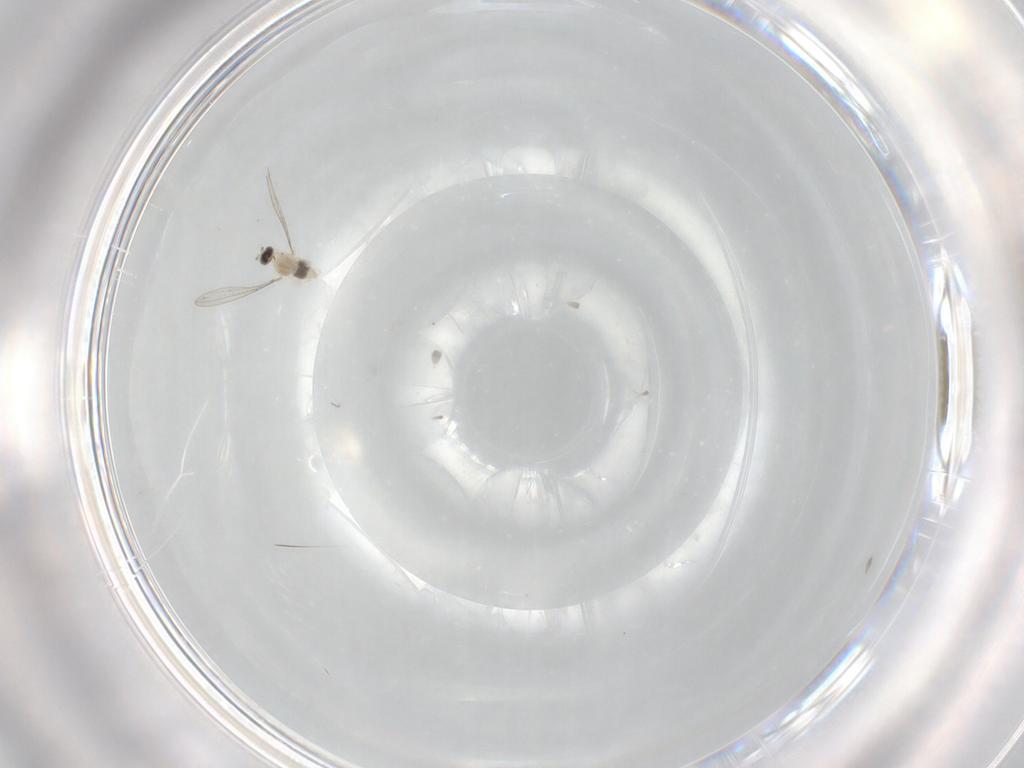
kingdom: Animalia
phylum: Arthropoda
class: Insecta
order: Diptera
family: Cecidomyiidae
